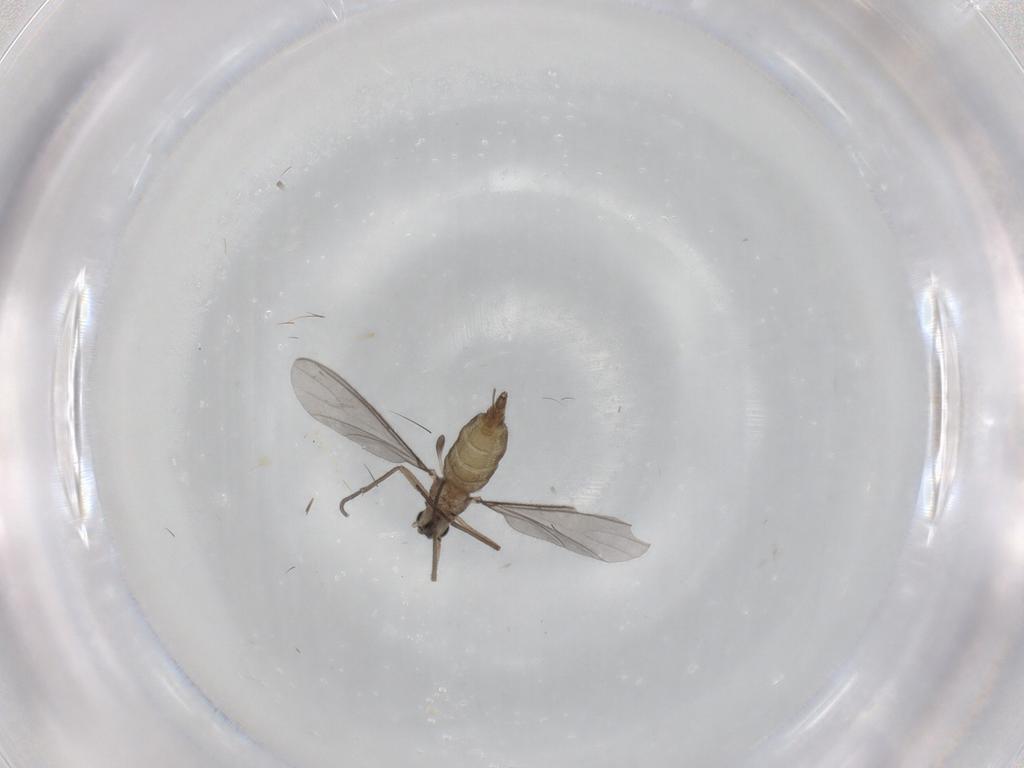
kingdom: Animalia
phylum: Arthropoda
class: Insecta
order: Diptera
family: Sciaridae
